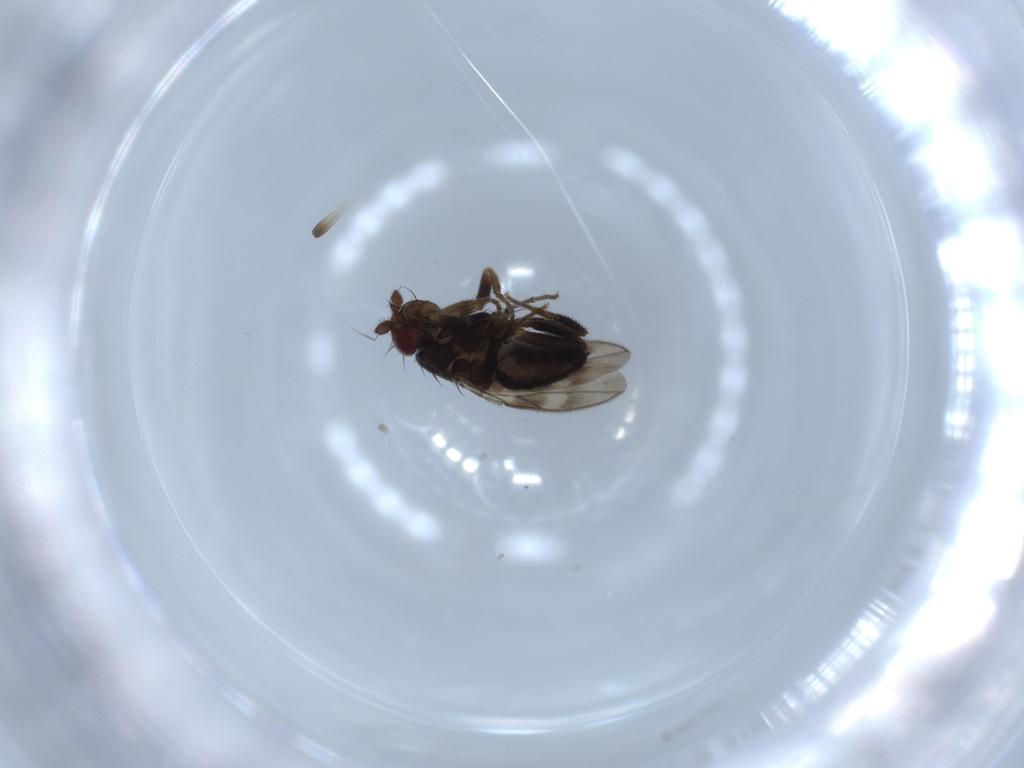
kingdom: Animalia
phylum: Arthropoda
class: Insecta
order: Diptera
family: Sphaeroceridae
